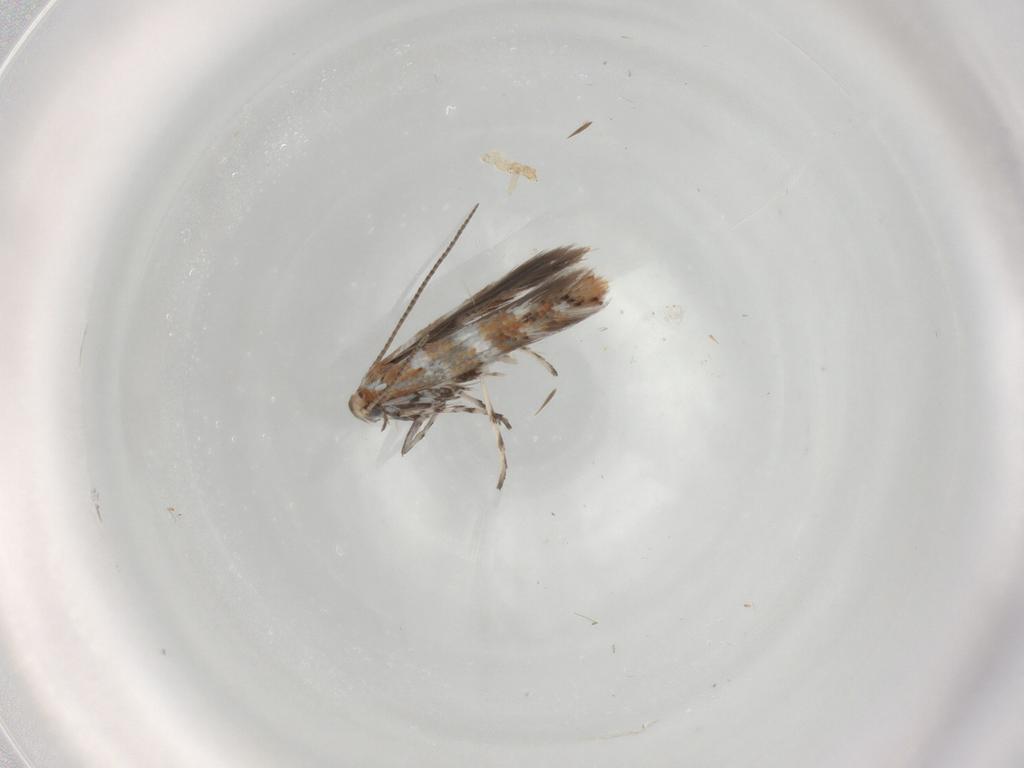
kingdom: Animalia
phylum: Arthropoda
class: Insecta
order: Lepidoptera
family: Gracillariidae
